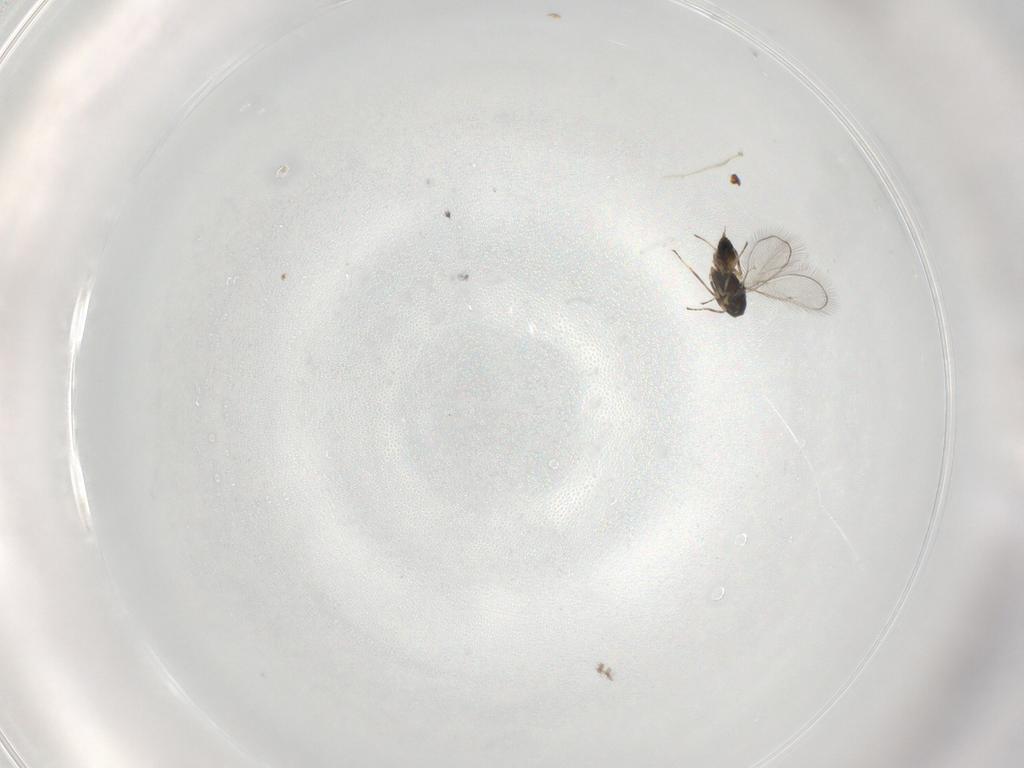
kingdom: Animalia
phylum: Arthropoda
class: Insecta
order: Hymenoptera
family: Eulophidae
